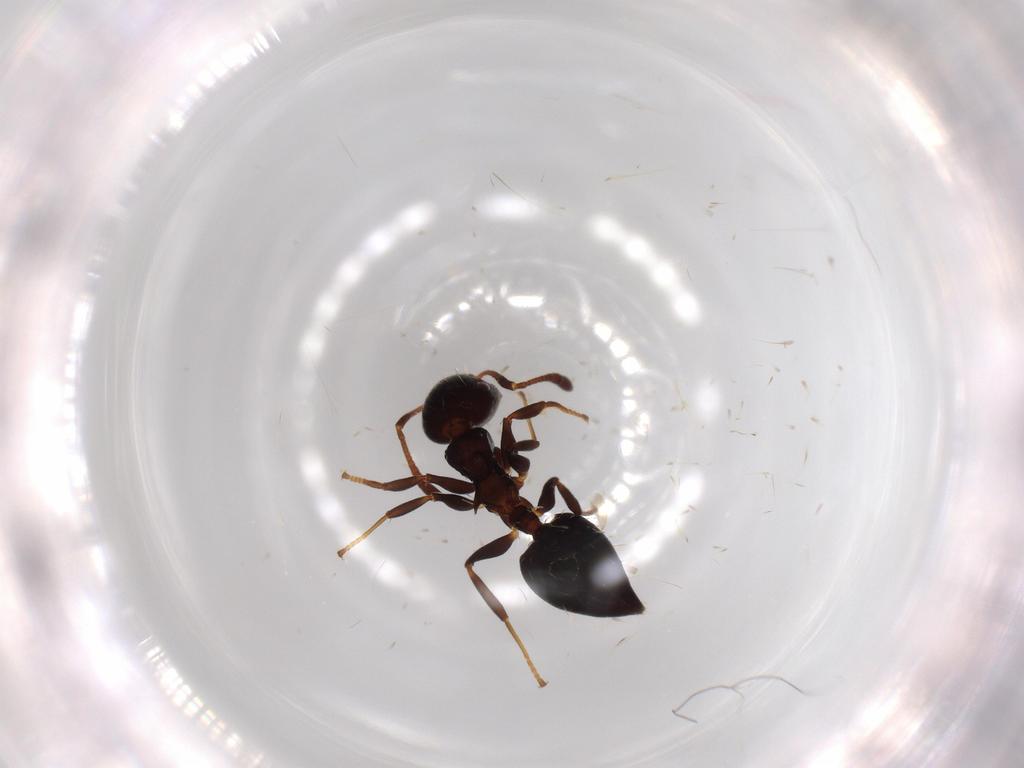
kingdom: Animalia
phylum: Arthropoda
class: Insecta
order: Hymenoptera
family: Formicidae
